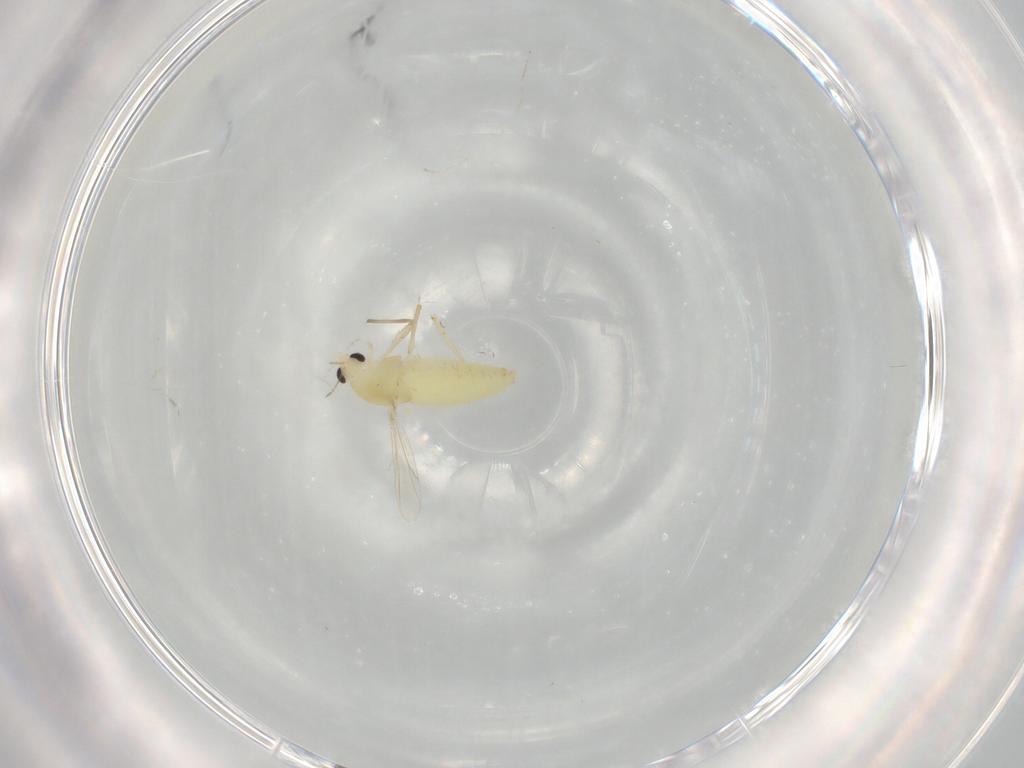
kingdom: Animalia
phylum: Arthropoda
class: Insecta
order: Diptera
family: Chironomidae
